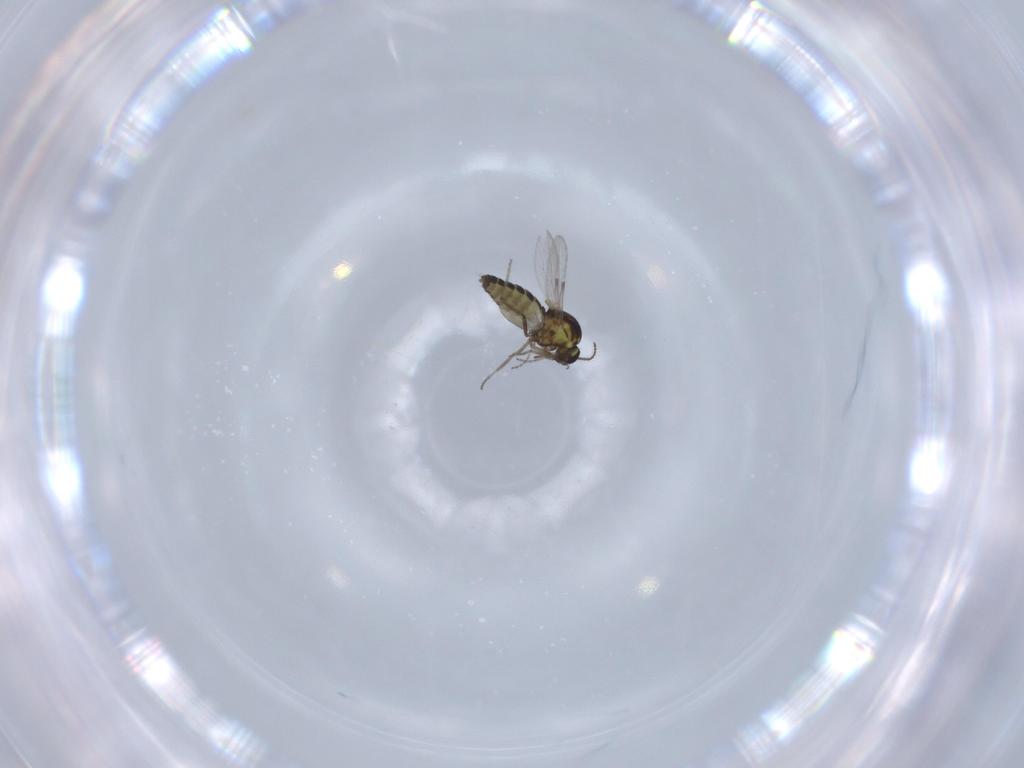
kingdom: Animalia
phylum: Arthropoda
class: Insecta
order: Diptera
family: Ceratopogonidae
